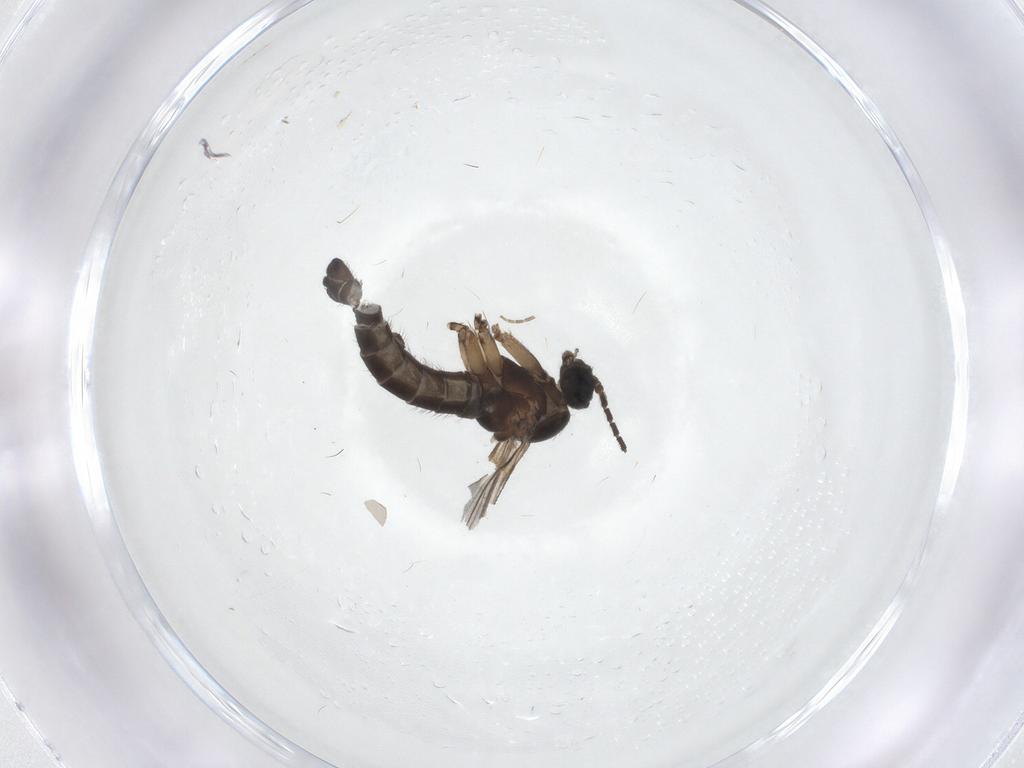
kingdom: Animalia
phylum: Arthropoda
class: Insecta
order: Diptera
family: Sciaridae
